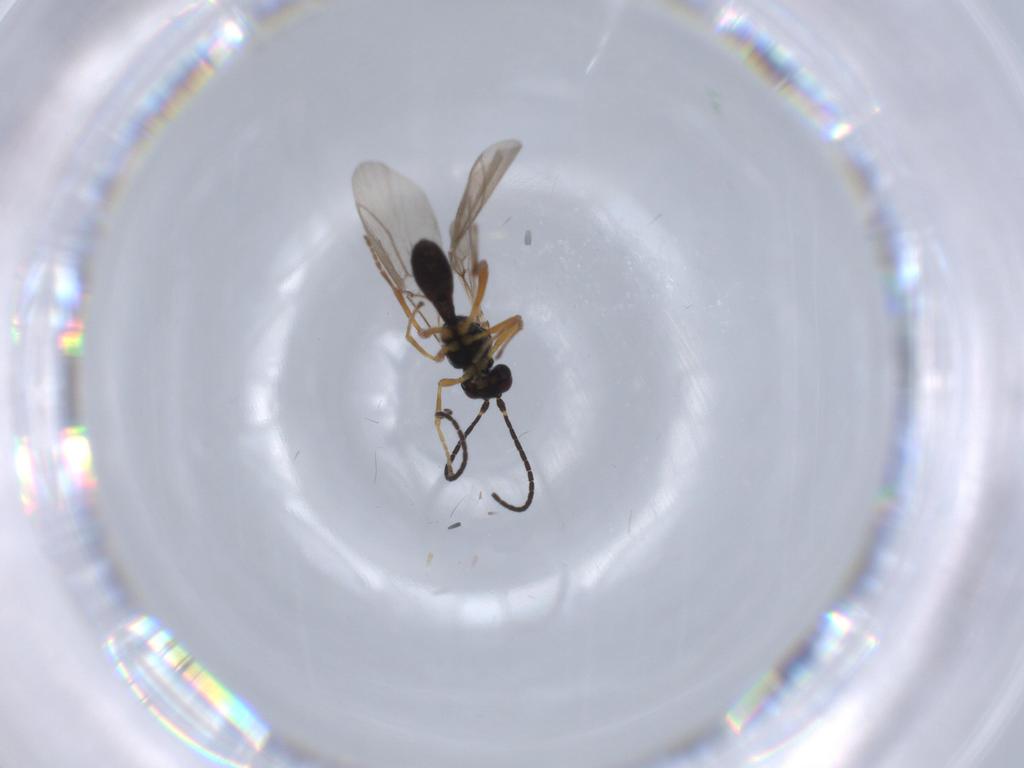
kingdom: Animalia
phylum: Arthropoda
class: Insecta
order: Hymenoptera
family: Braconidae
